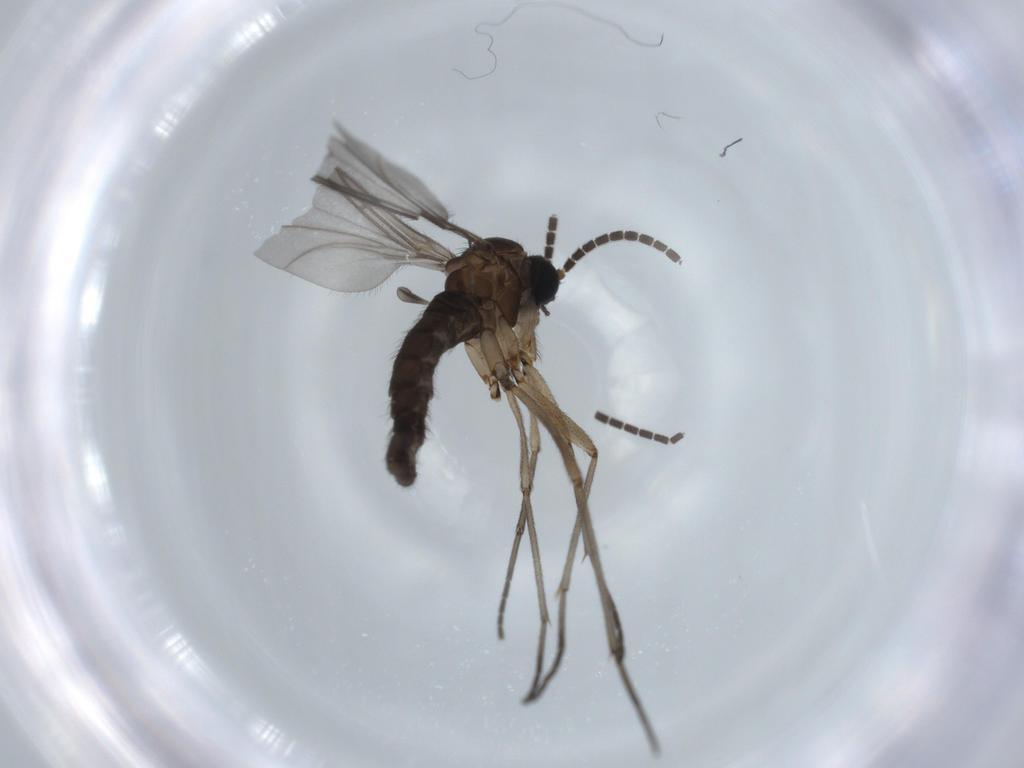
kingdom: Animalia
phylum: Arthropoda
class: Insecta
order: Diptera
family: Sciaridae
